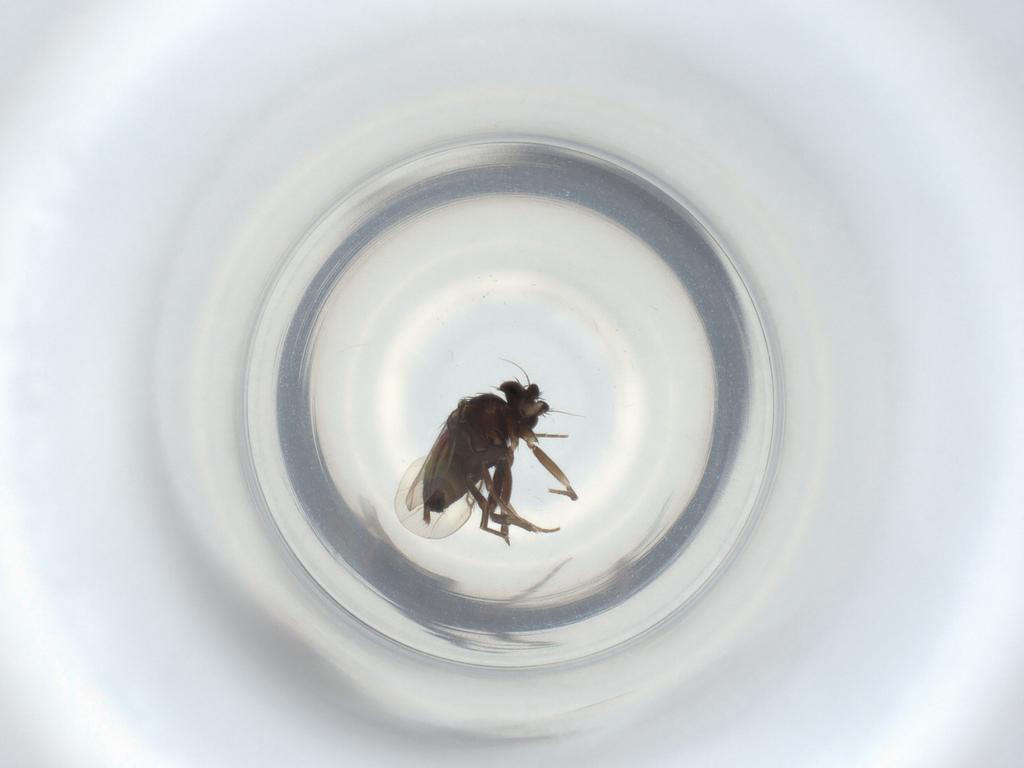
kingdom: Animalia
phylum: Arthropoda
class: Insecta
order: Diptera
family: Phoridae
